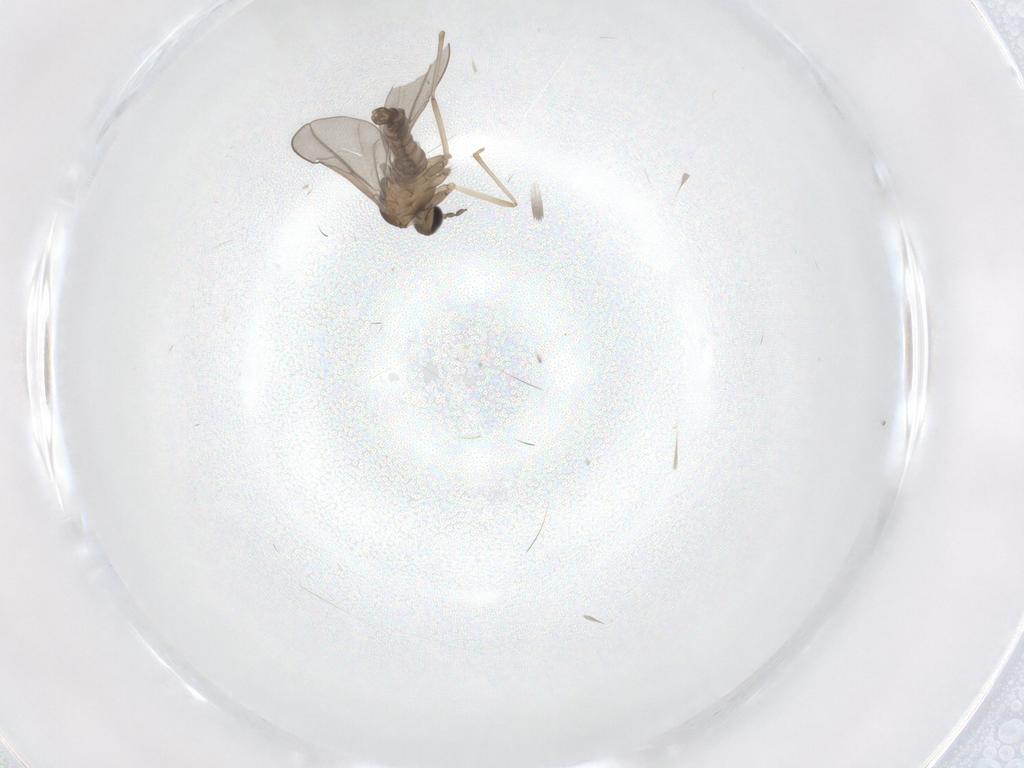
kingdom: Animalia
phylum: Arthropoda
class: Insecta
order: Diptera
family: Cecidomyiidae
